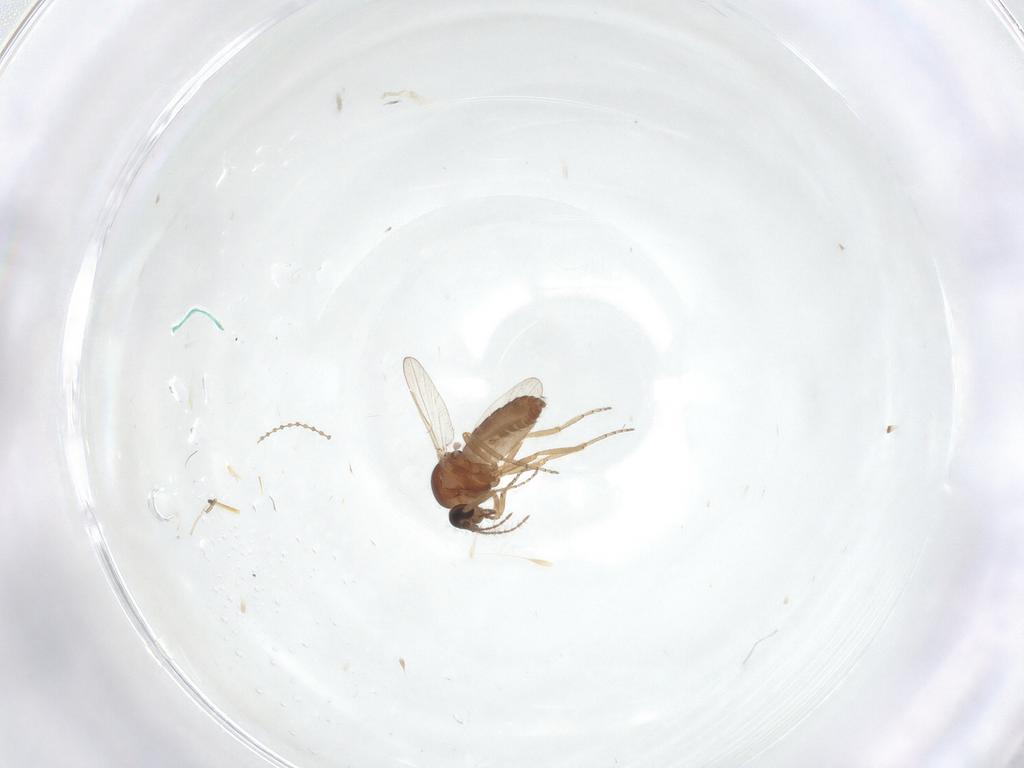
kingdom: Animalia
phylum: Arthropoda
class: Insecta
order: Diptera
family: Ceratopogonidae
